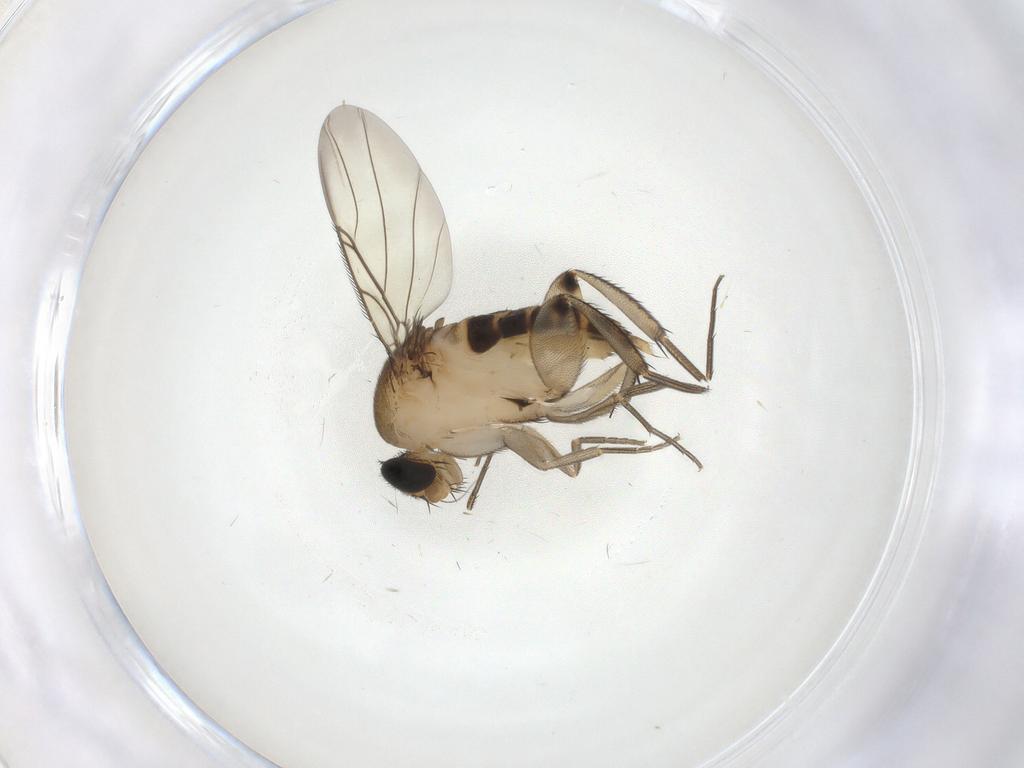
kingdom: Animalia
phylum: Arthropoda
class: Insecta
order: Diptera
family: Phoridae
